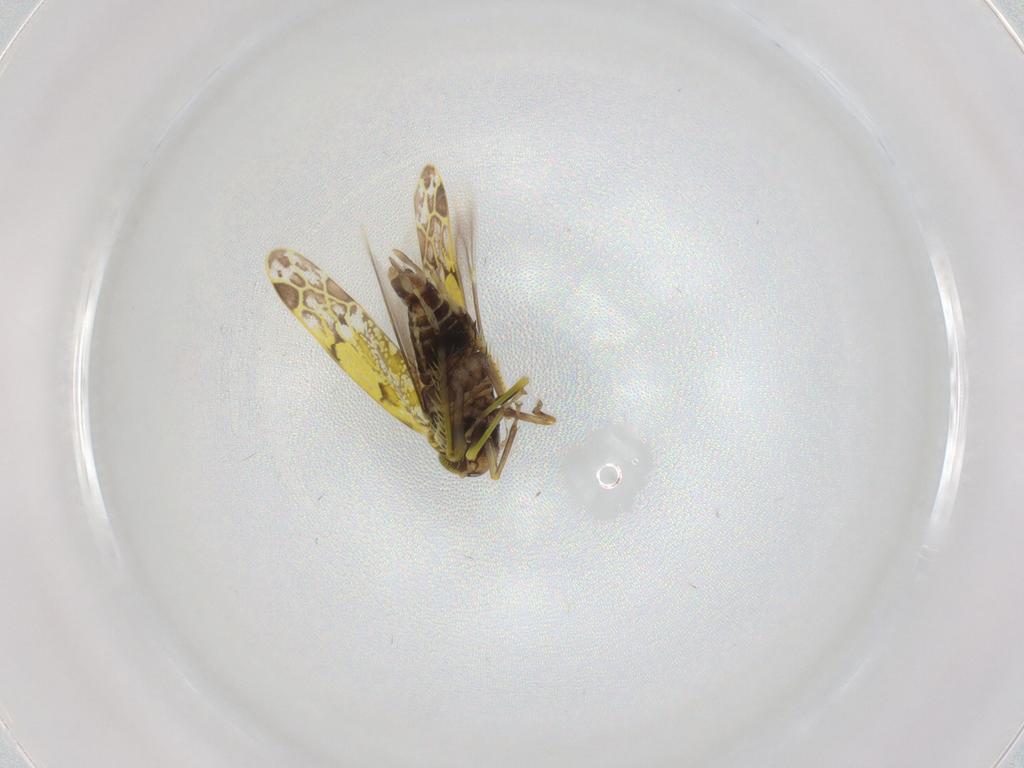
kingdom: Animalia
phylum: Arthropoda
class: Insecta
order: Hemiptera
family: Cicadellidae
